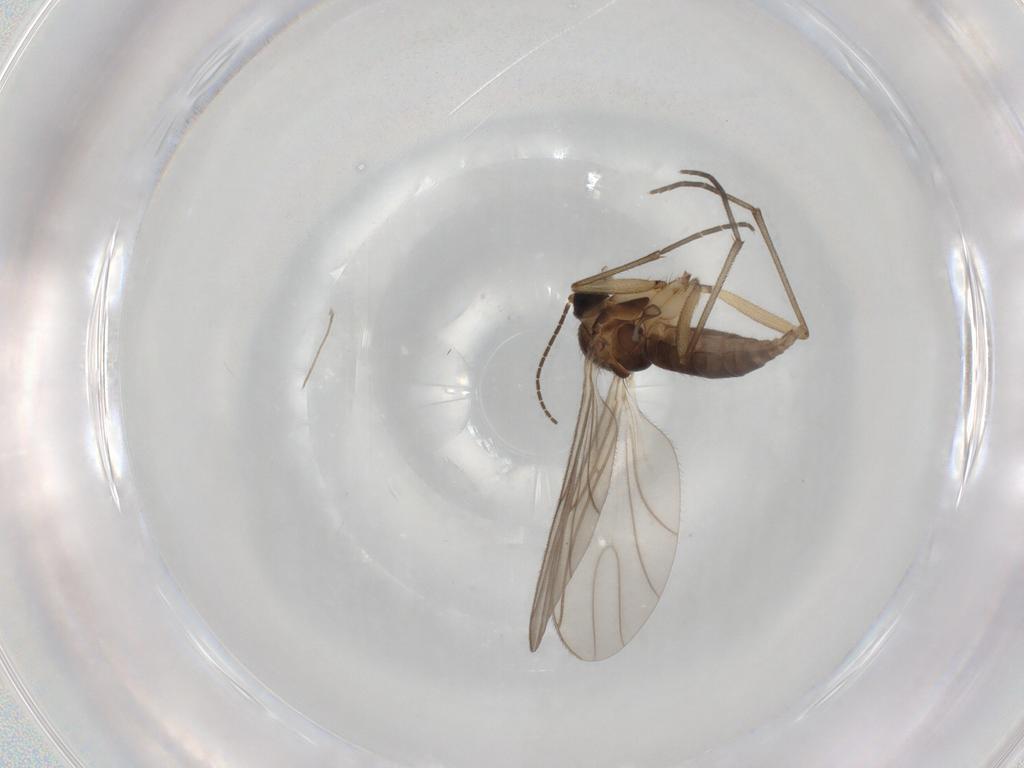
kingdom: Animalia
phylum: Arthropoda
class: Insecta
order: Diptera
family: Sciaridae
